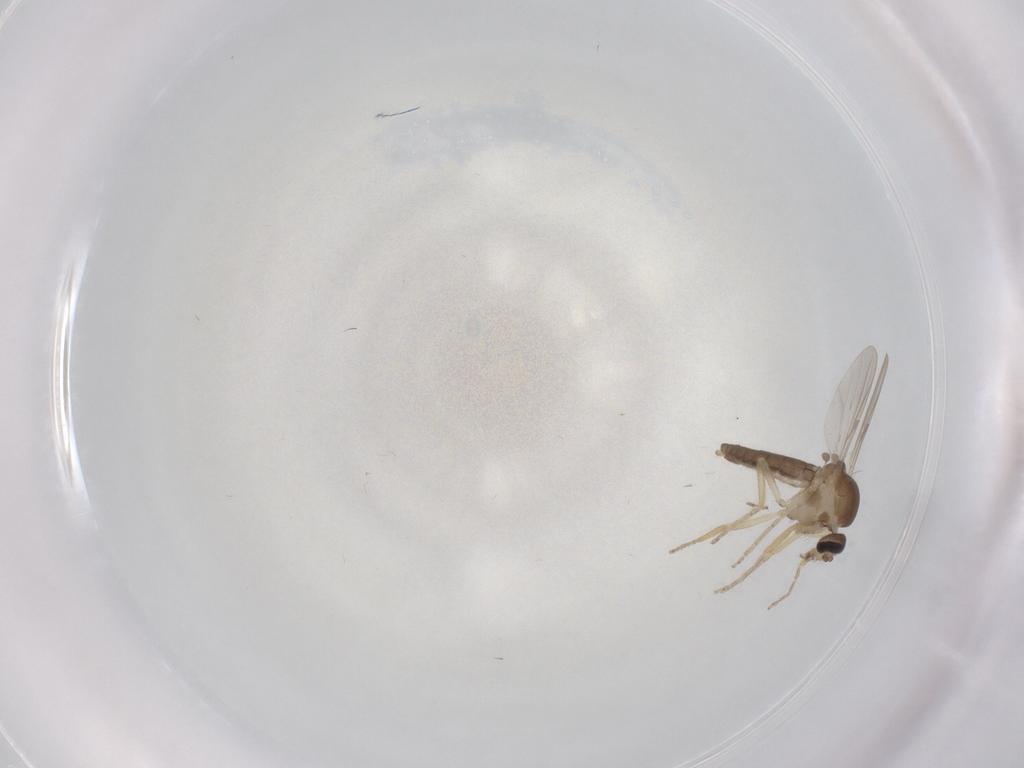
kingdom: Animalia
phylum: Arthropoda
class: Insecta
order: Diptera
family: Ceratopogonidae
